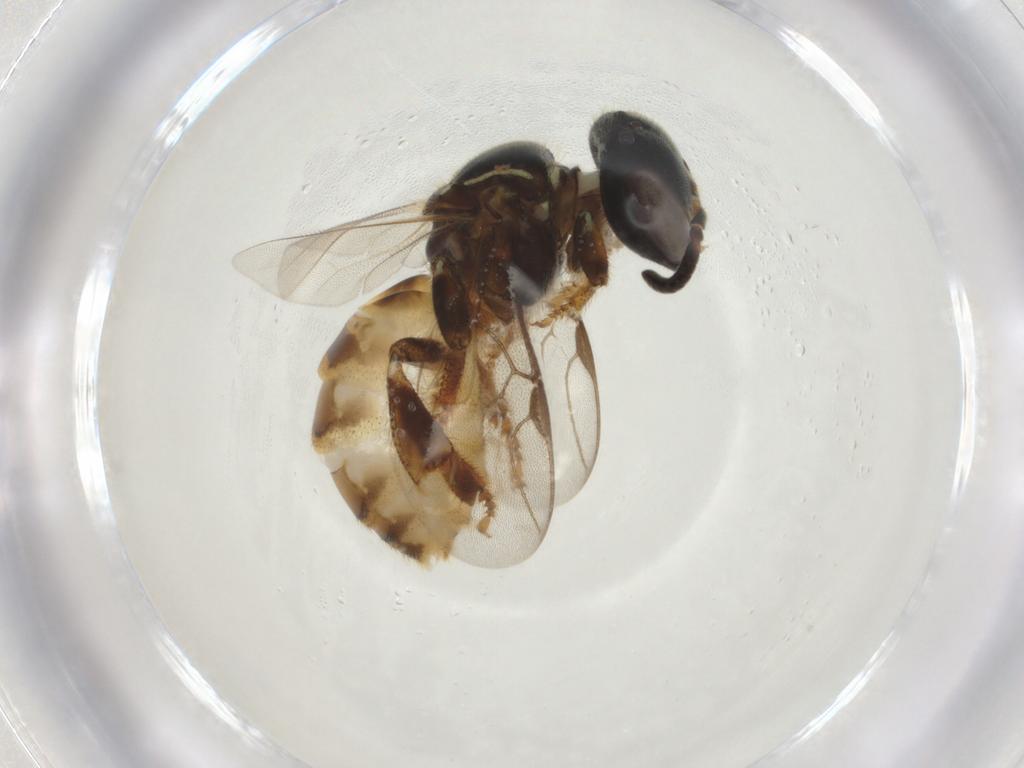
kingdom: Animalia
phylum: Arthropoda
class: Insecta
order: Hymenoptera
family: Apidae
